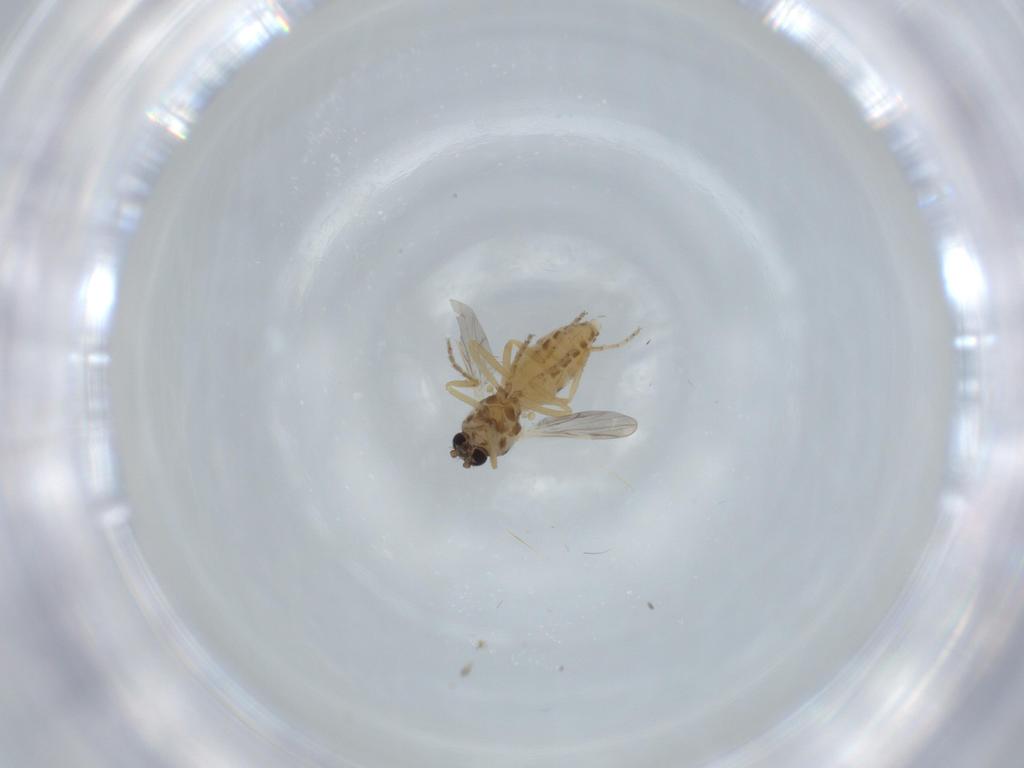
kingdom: Animalia
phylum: Arthropoda
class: Insecta
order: Diptera
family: Ceratopogonidae
